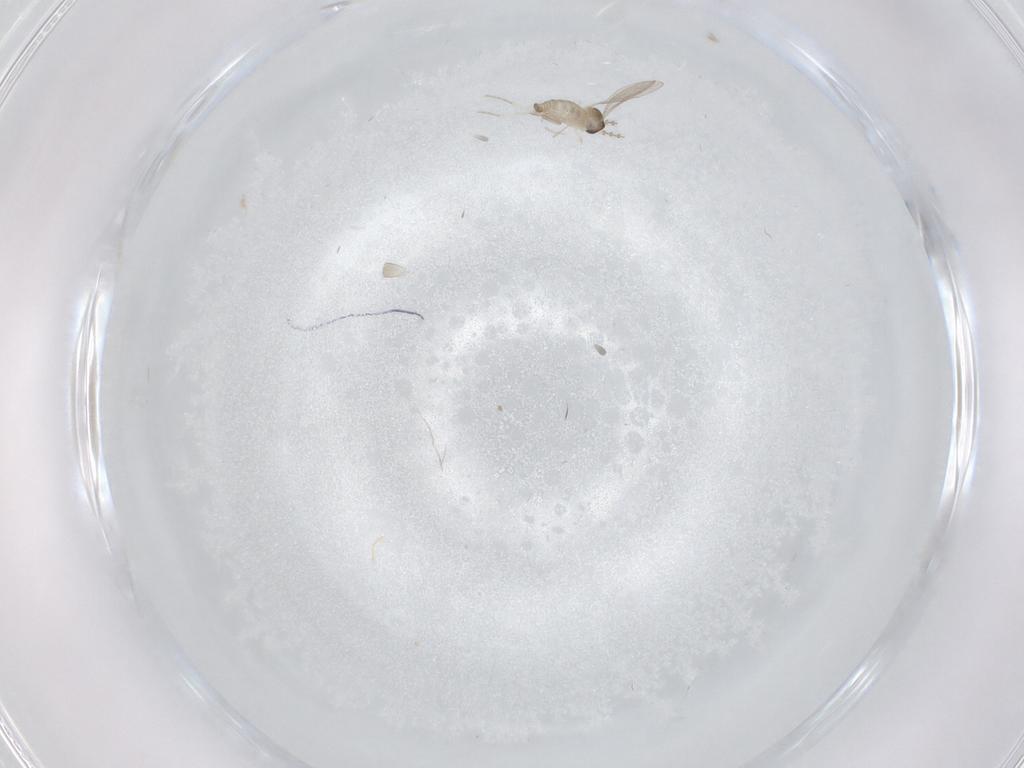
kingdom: Animalia
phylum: Arthropoda
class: Insecta
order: Diptera
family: Cecidomyiidae
